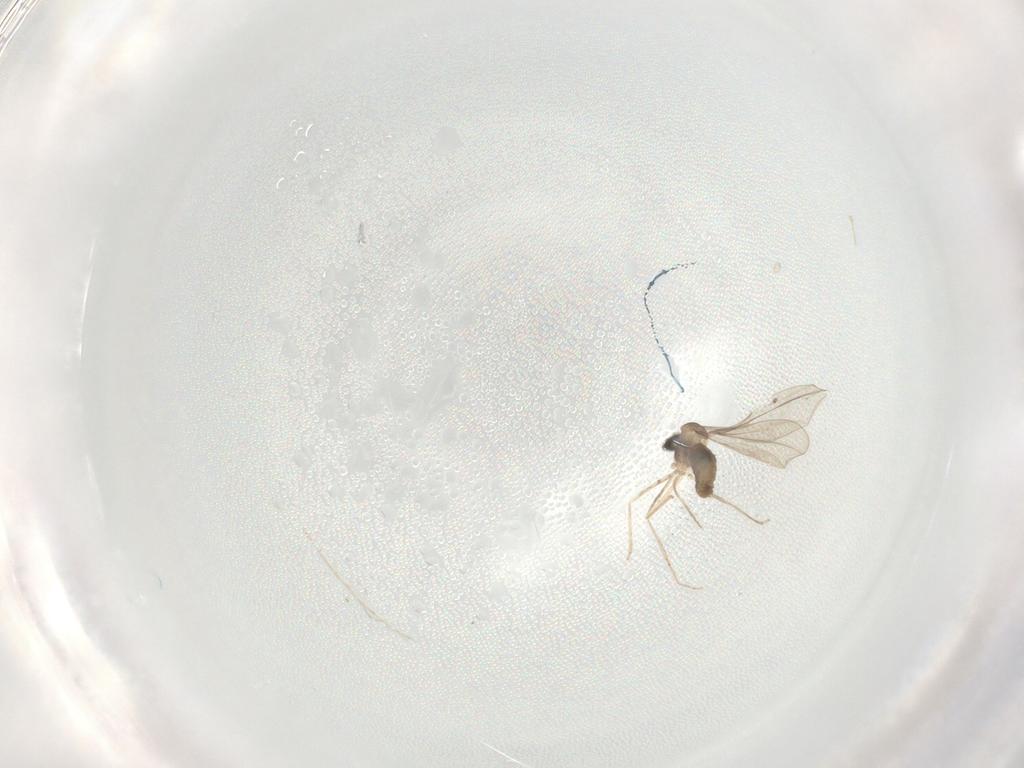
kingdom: Animalia
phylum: Arthropoda
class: Insecta
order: Diptera
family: Cecidomyiidae
